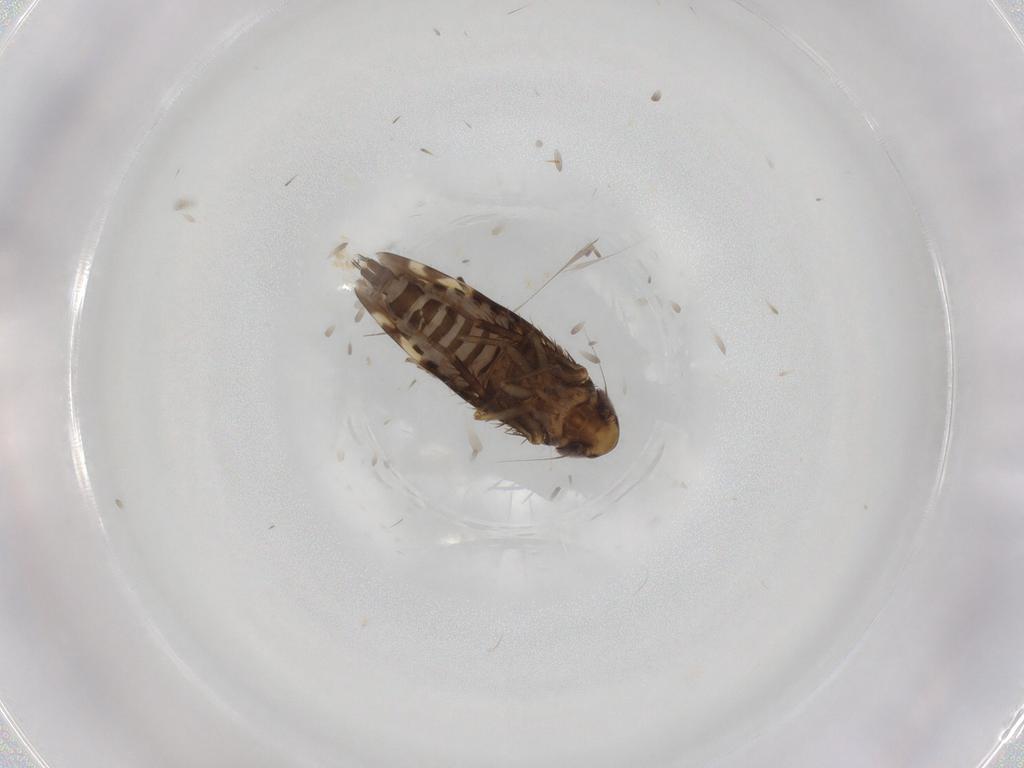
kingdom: Animalia
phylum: Arthropoda
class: Insecta
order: Hemiptera
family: Cicadellidae
